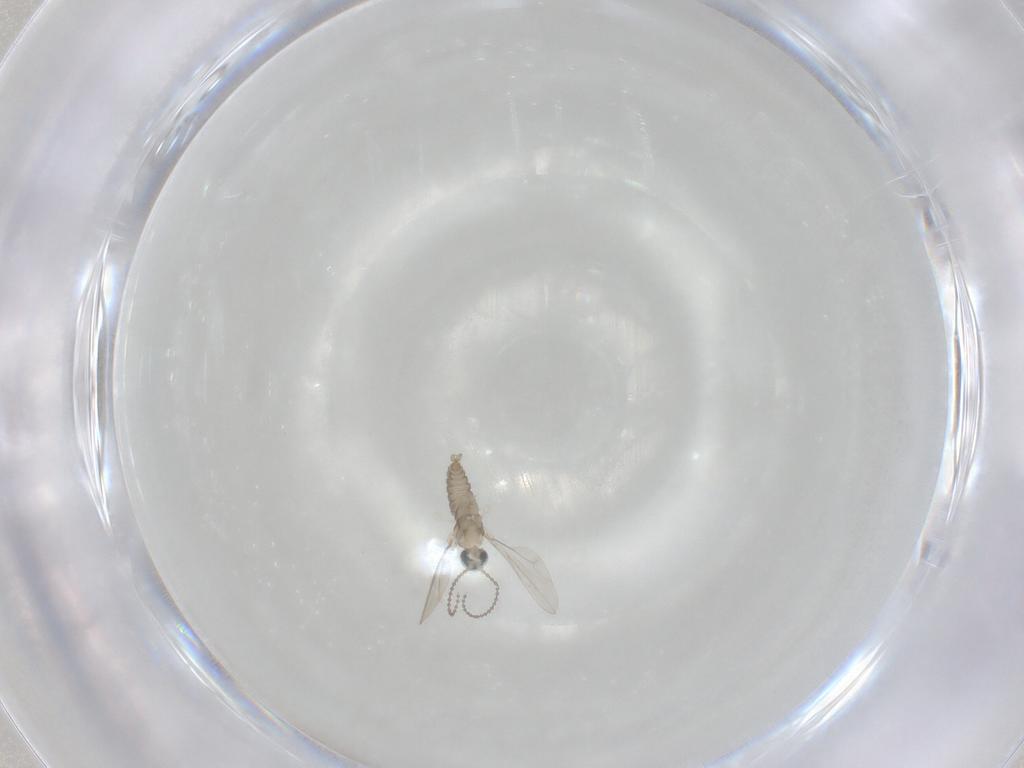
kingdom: Animalia
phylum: Arthropoda
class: Insecta
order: Diptera
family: Dolichopodidae
